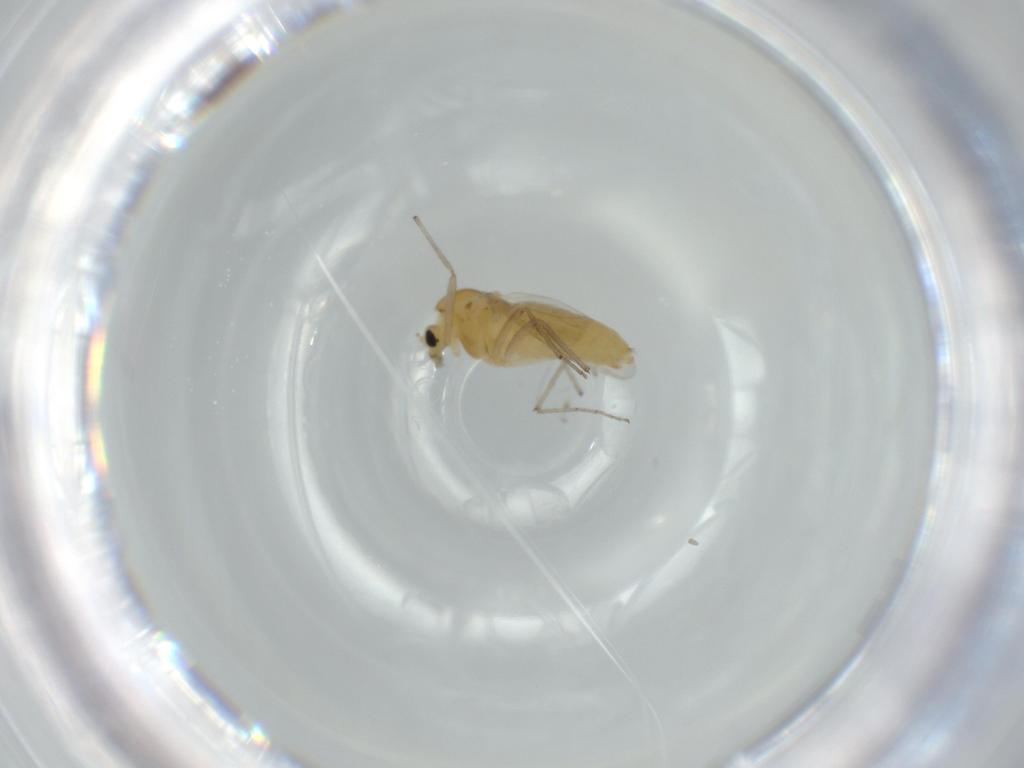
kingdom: Animalia
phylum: Arthropoda
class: Insecta
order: Diptera
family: Chironomidae
